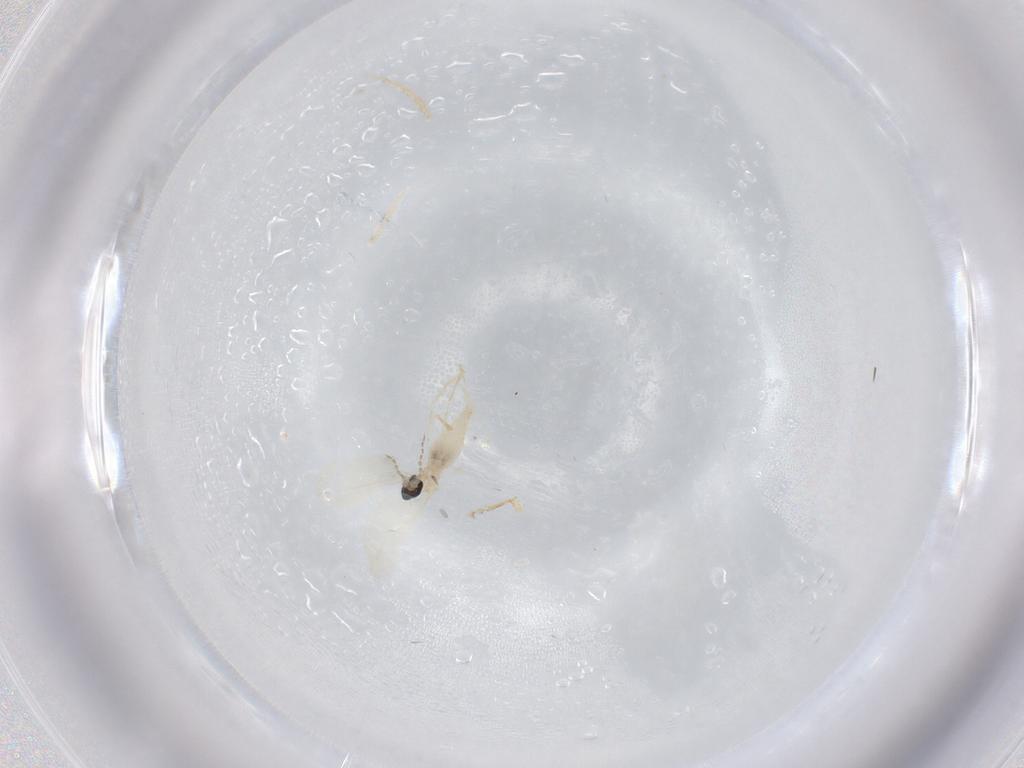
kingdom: Animalia
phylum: Arthropoda
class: Insecta
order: Diptera
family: Cecidomyiidae
